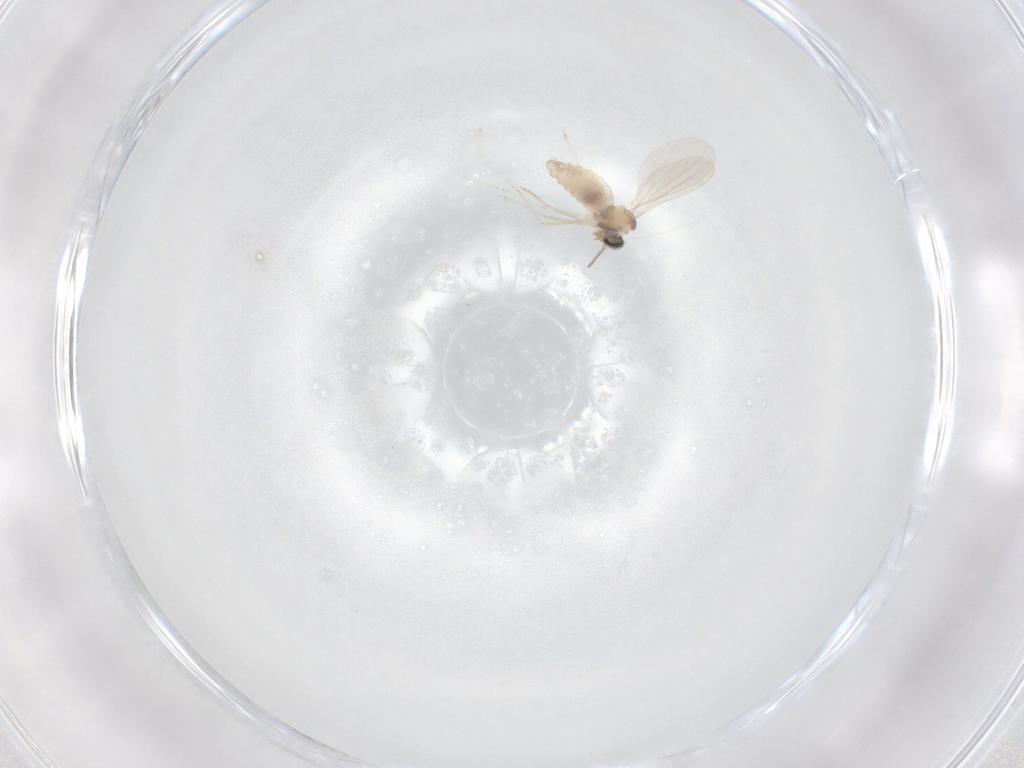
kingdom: Animalia
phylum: Arthropoda
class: Insecta
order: Diptera
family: Cecidomyiidae
